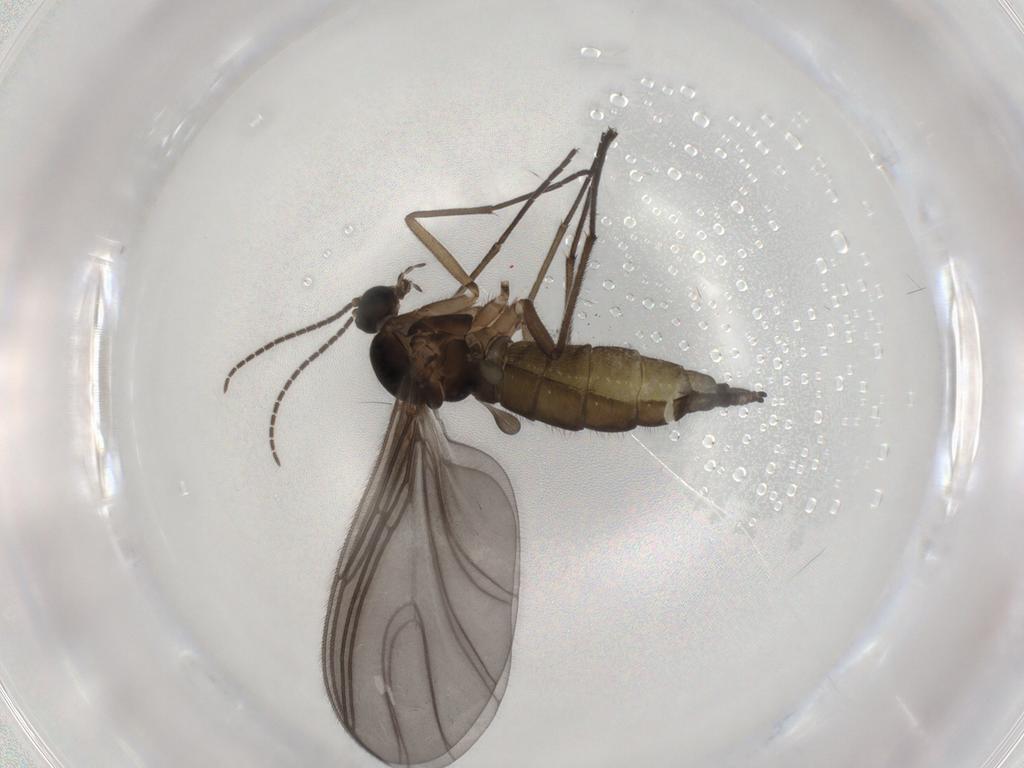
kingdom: Animalia
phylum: Arthropoda
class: Insecta
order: Diptera
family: Sciaridae
